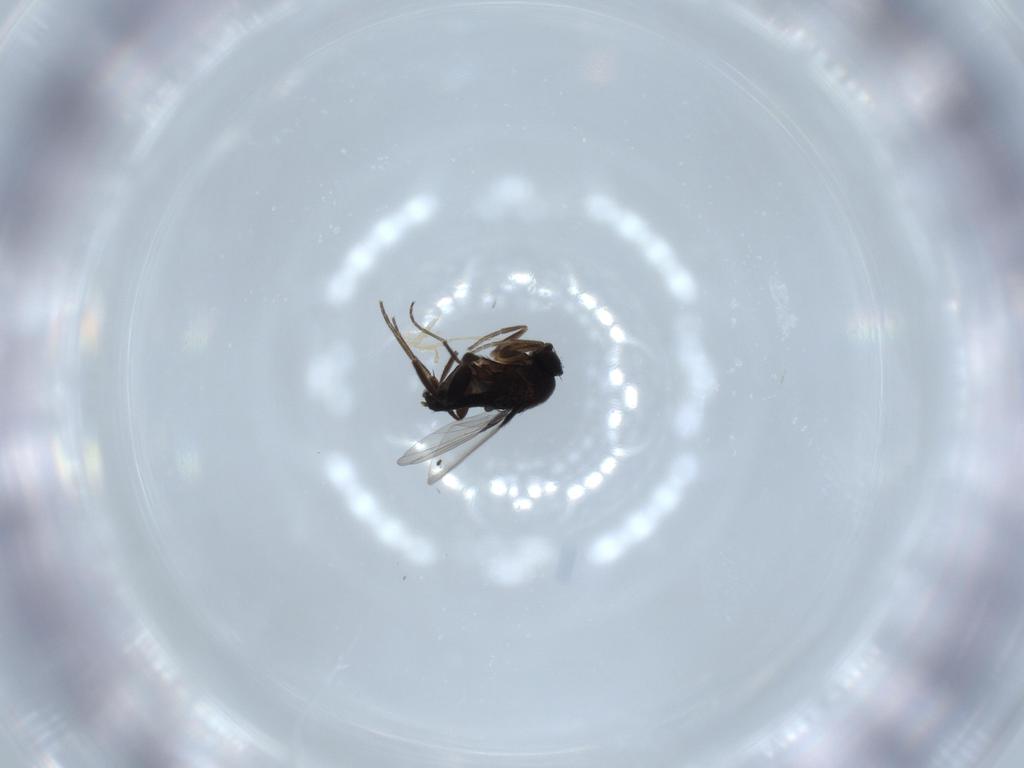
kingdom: Animalia
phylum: Arthropoda
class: Insecta
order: Diptera
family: Phoridae
